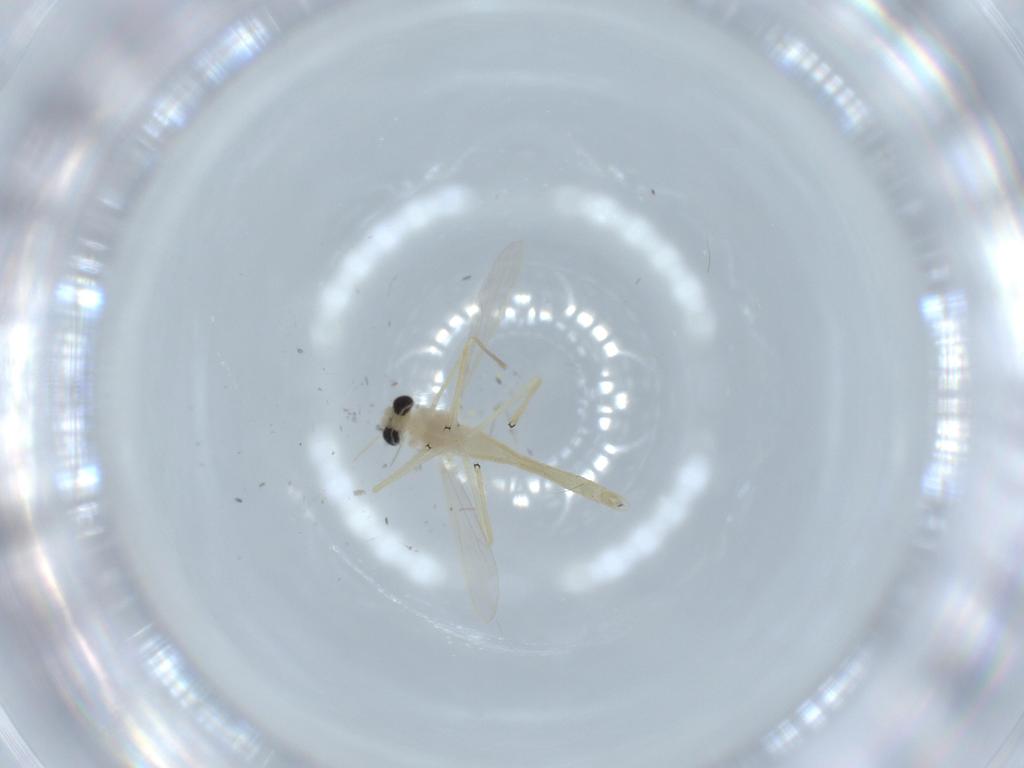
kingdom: Animalia
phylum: Arthropoda
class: Insecta
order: Diptera
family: Chironomidae
